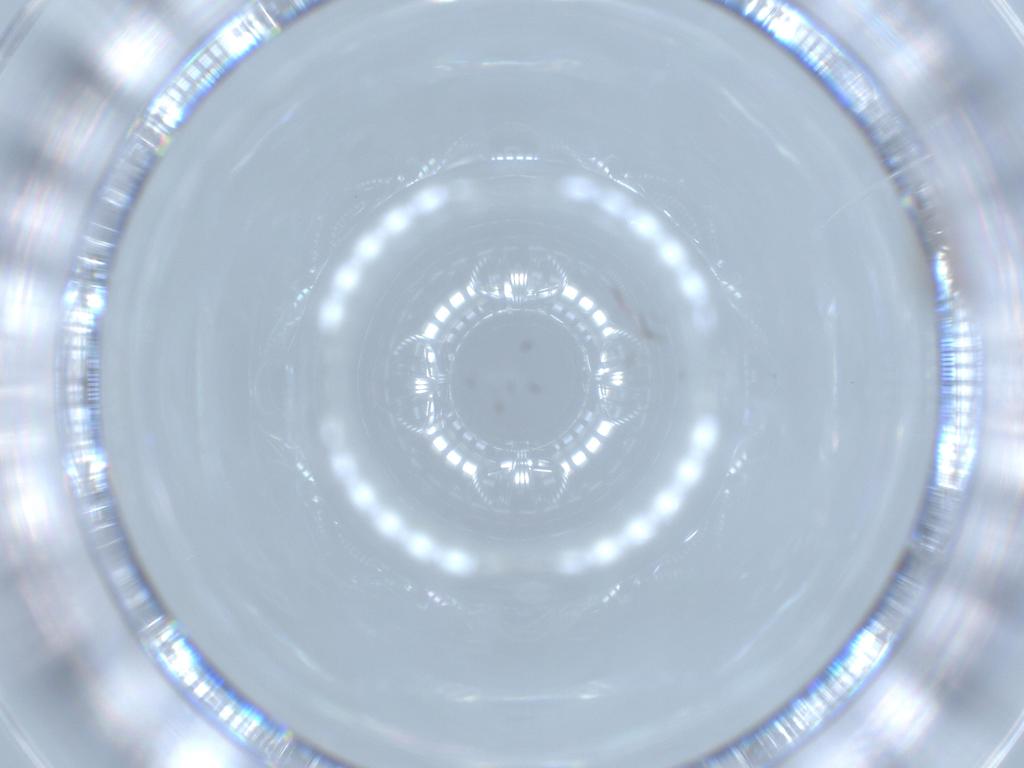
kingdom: Animalia
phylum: Arthropoda
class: Insecta
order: Diptera
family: Cecidomyiidae
